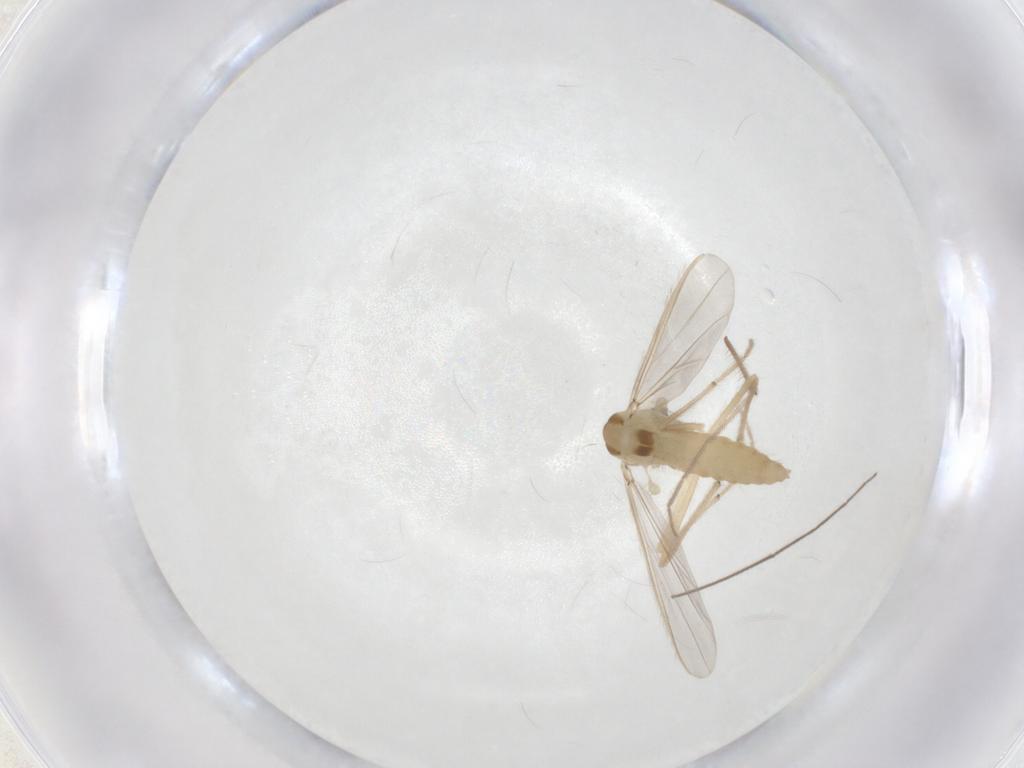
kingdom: Animalia
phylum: Arthropoda
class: Insecta
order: Diptera
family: Chironomidae
